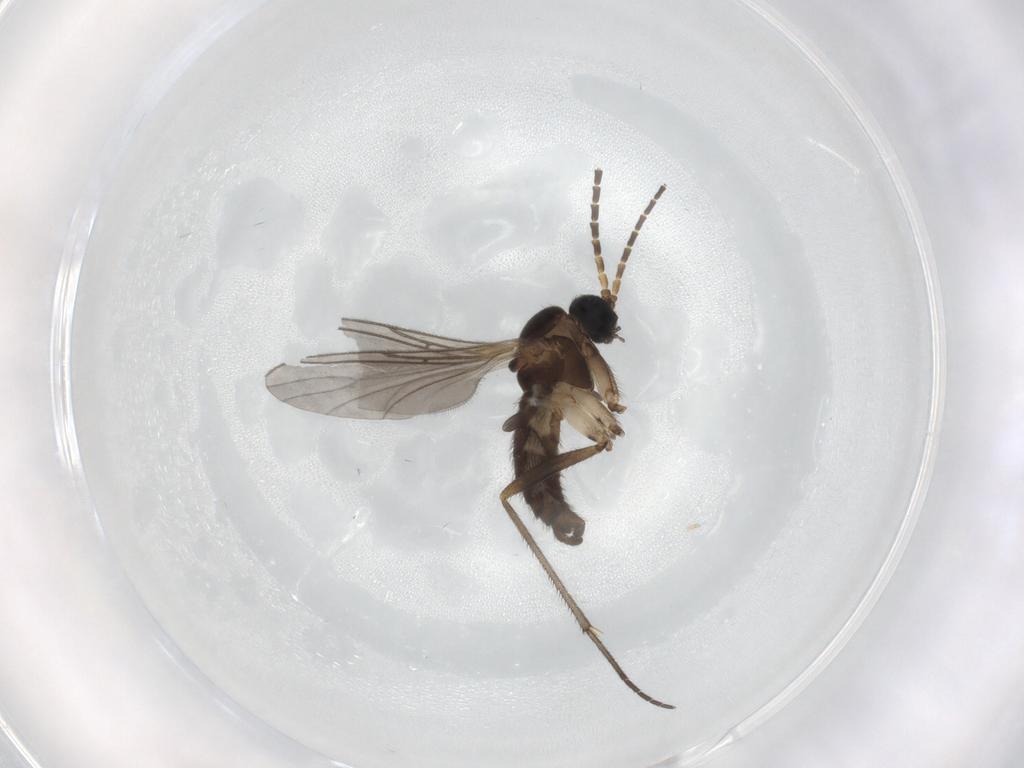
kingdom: Animalia
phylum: Arthropoda
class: Insecta
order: Diptera
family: Sciaridae
